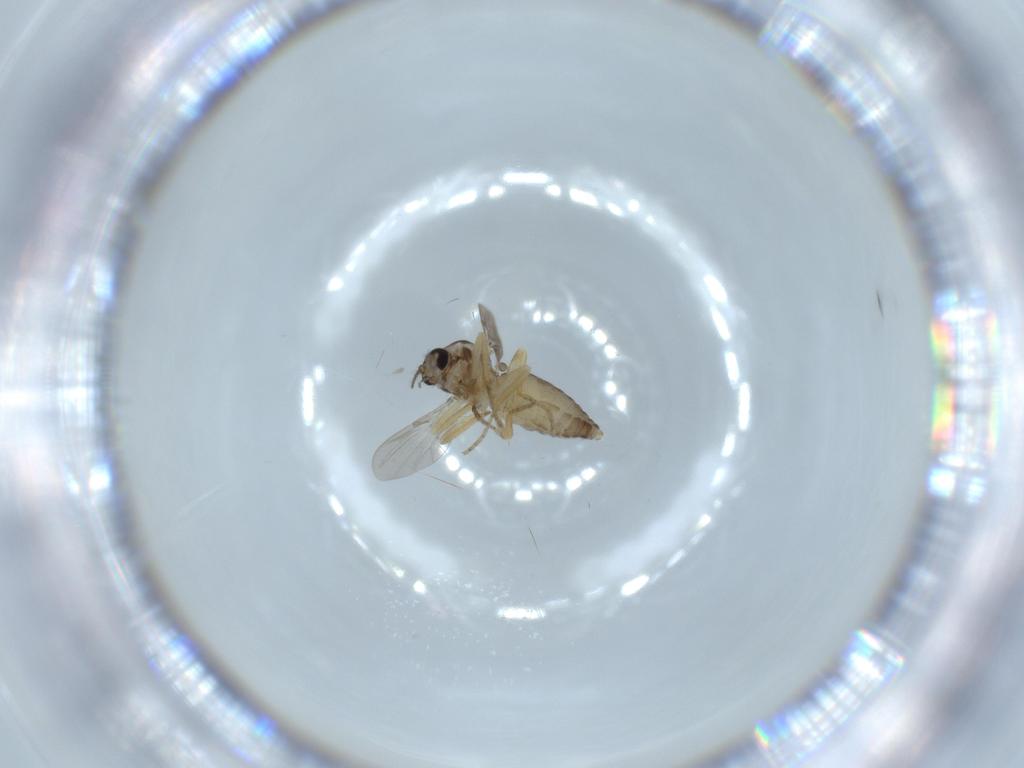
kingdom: Animalia
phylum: Arthropoda
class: Insecta
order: Diptera
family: Ceratopogonidae
